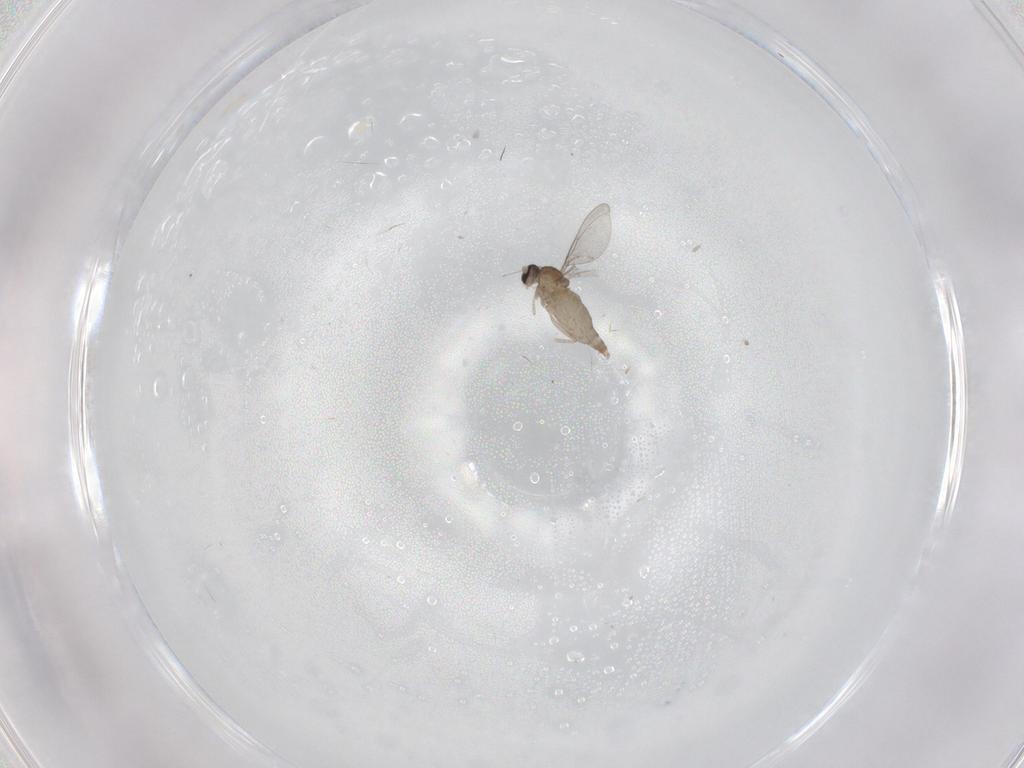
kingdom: Animalia
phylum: Arthropoda
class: Insecta
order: Diptera
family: Cecidomyiidae
